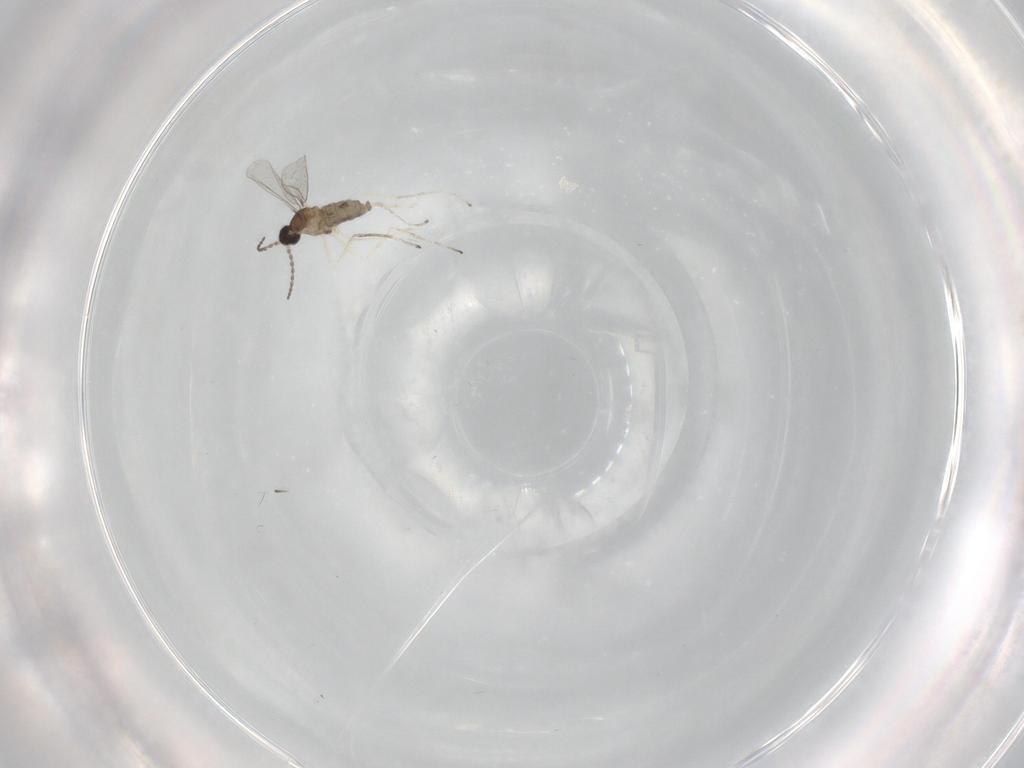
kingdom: Animalia
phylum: Arthropoda
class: Insecta
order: Diptera
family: Cecidomyiidae
